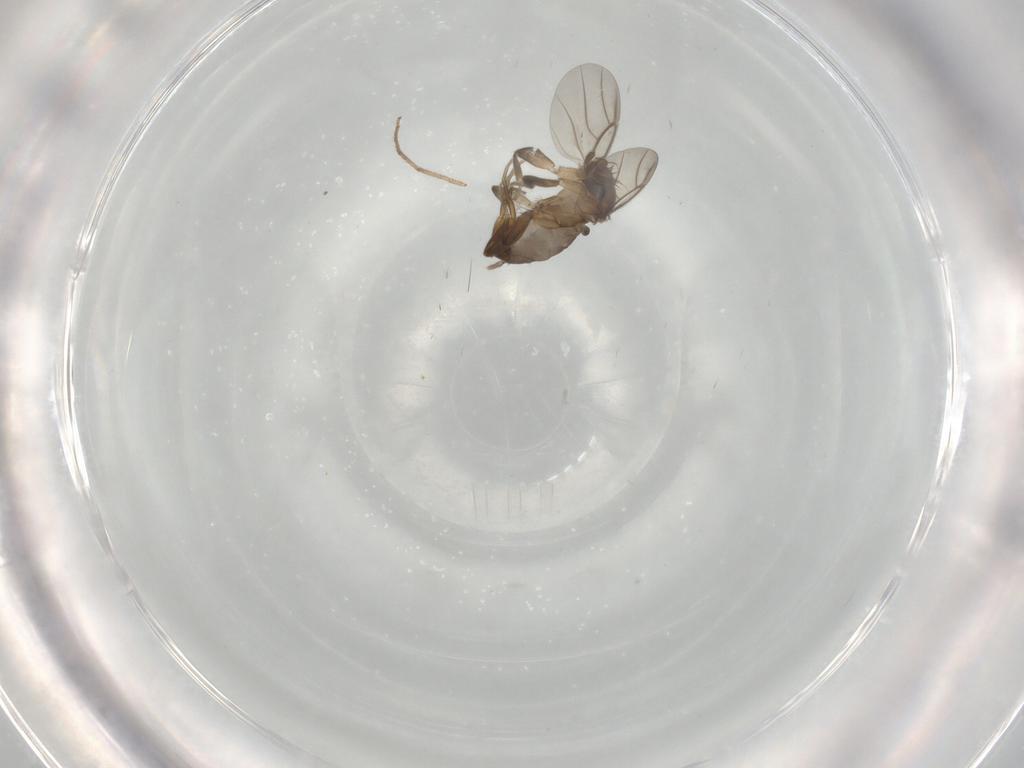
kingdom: Animalia
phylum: Arthropoda
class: Insecta
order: Diptera
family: Phoridae
